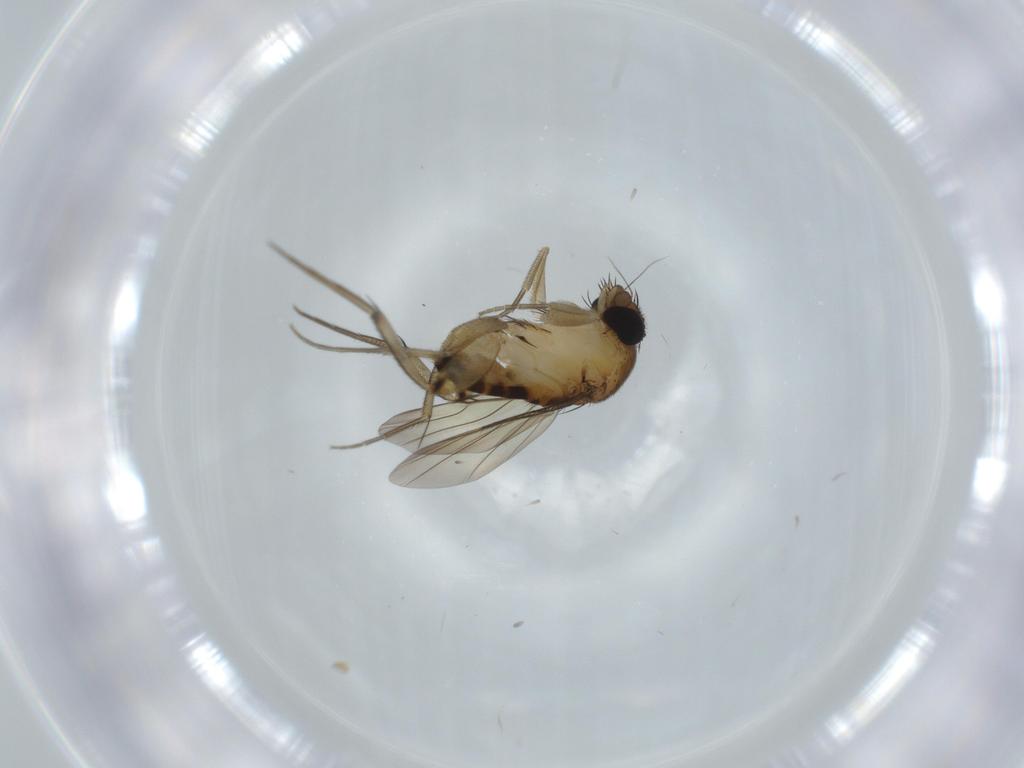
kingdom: Animalia
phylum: Arthropoda
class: Insecta
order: Diptera
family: Phoridae
